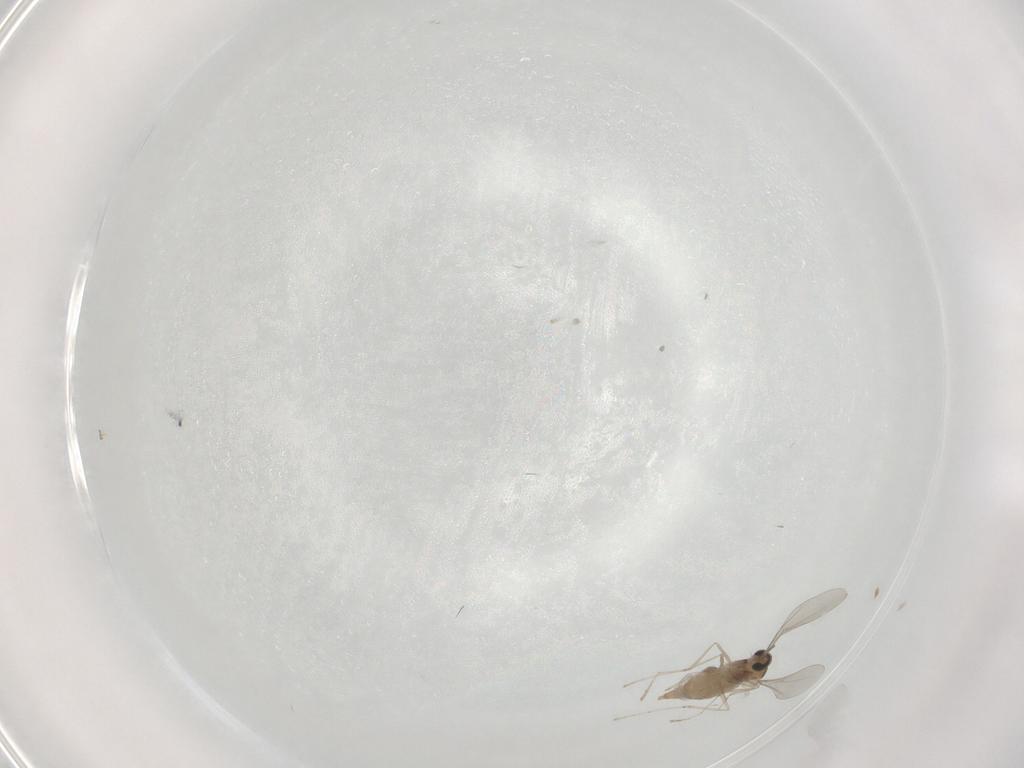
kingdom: Animalia
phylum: Arthropoda
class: Insecta
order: Diptera
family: Cecidomyiidae
